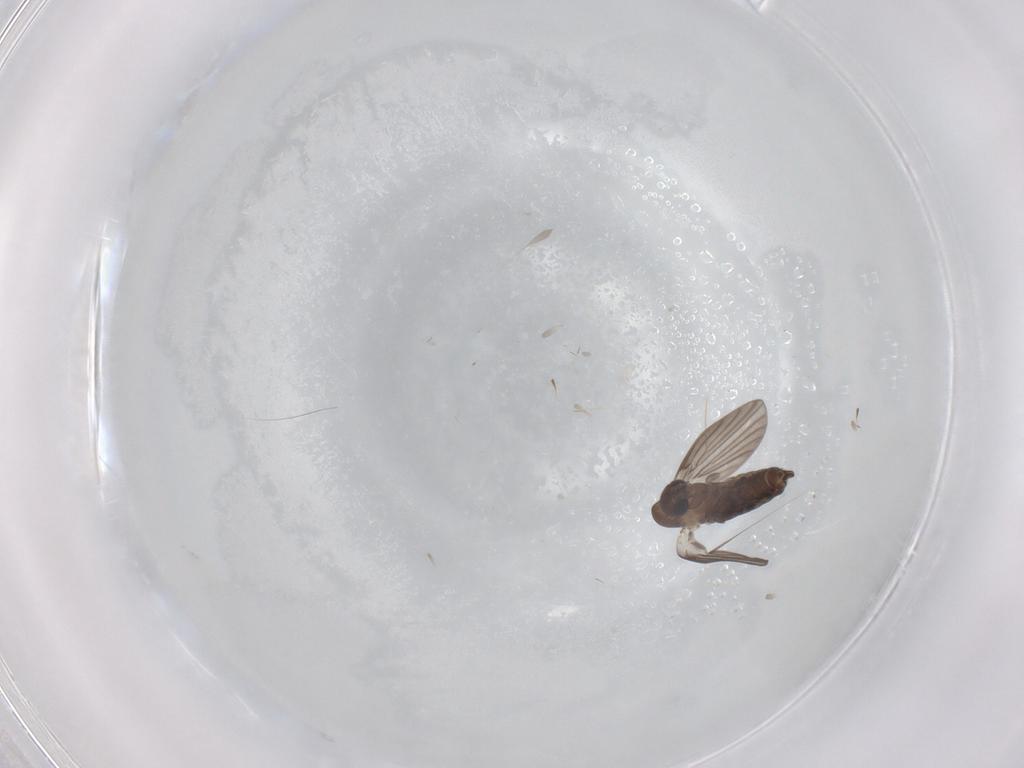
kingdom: Animalia
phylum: Arthropoda
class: Insecta
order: Diptera
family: Psychodidae
